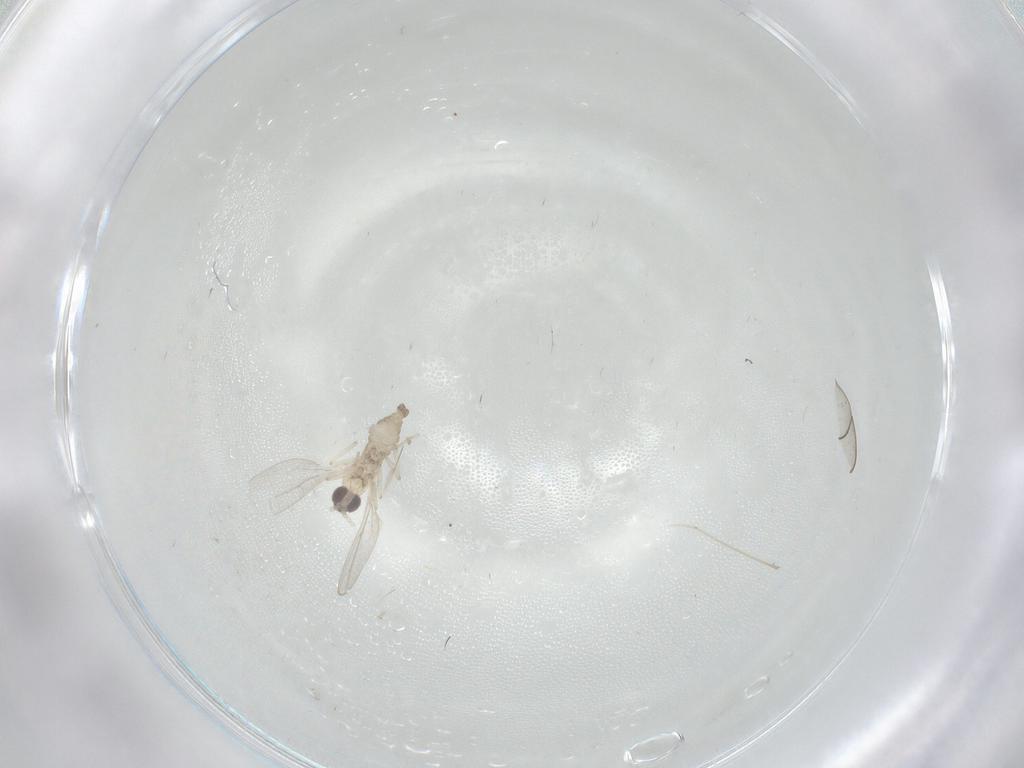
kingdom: Animalia
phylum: Arthropoda
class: Insecta
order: Diptera
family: Cecidomyiidae
